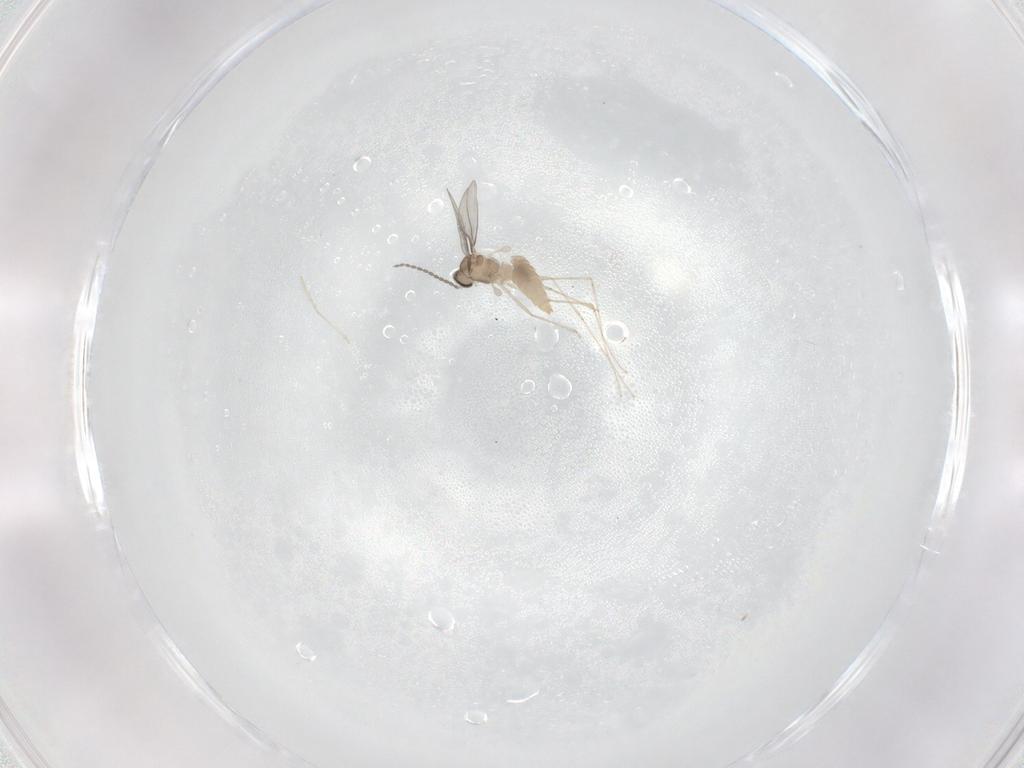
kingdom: Animalia
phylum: Arthropoda
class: Insecta
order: Diptera
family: Cecidomyiidae
